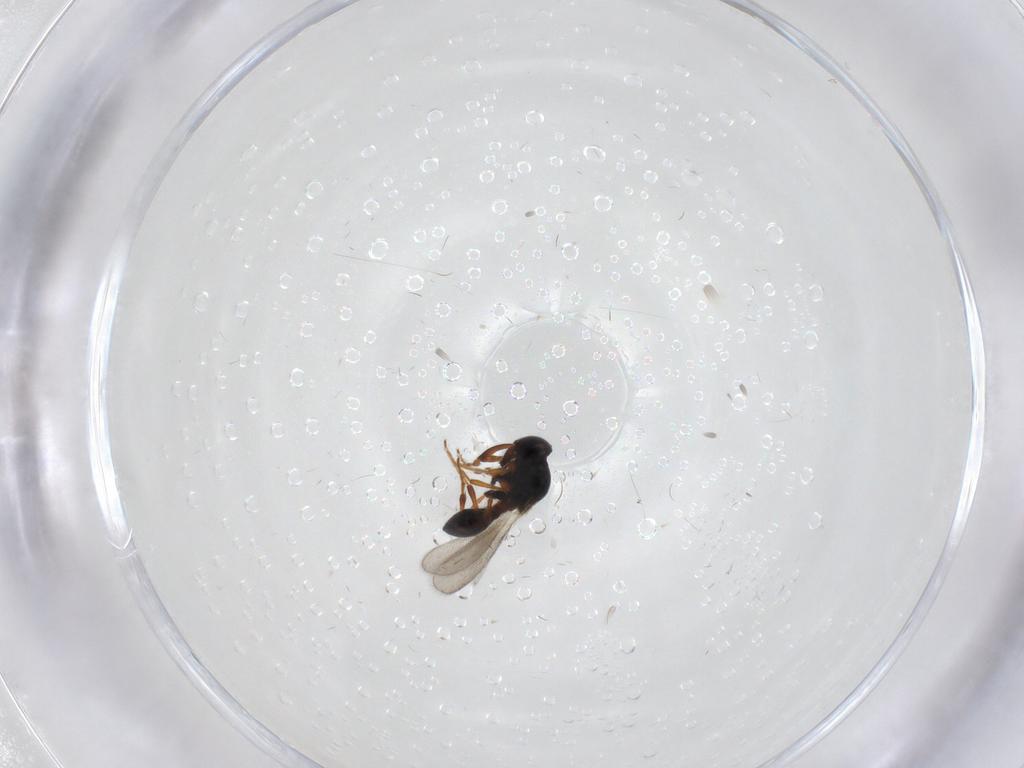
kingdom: Animalia
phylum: Arthropoda
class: Insecta
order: Hymenoptera
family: Platygastridae
